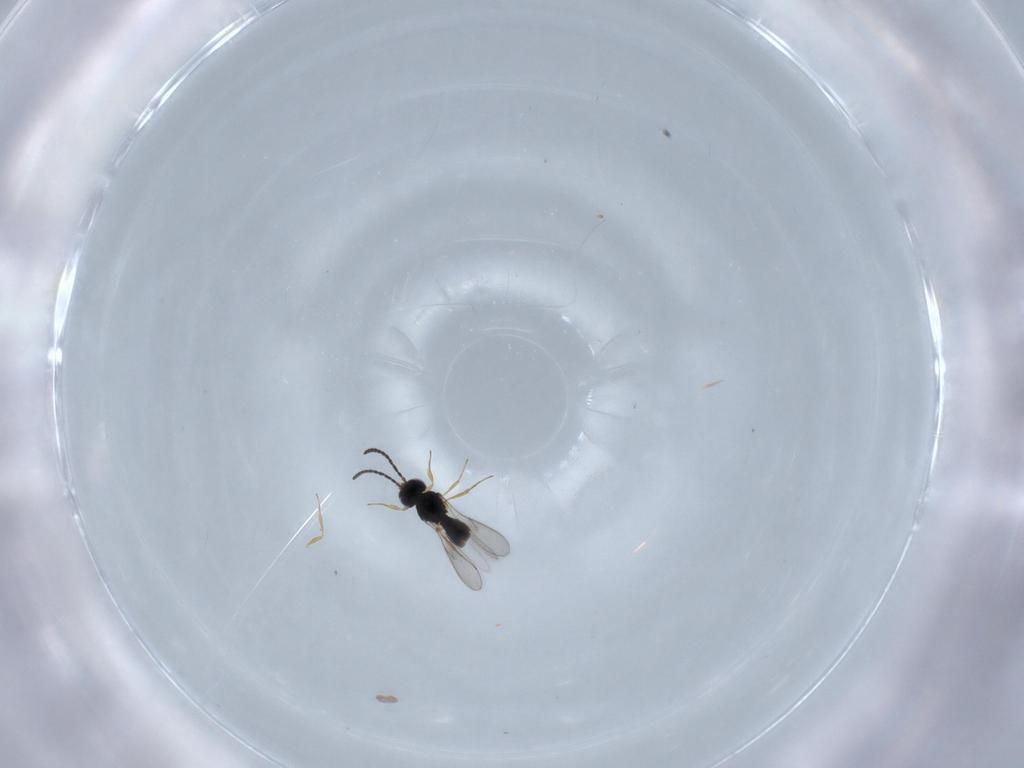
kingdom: Animalia
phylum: Arthropoda
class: Insecta
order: Hymenoptera
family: Scelionidae
